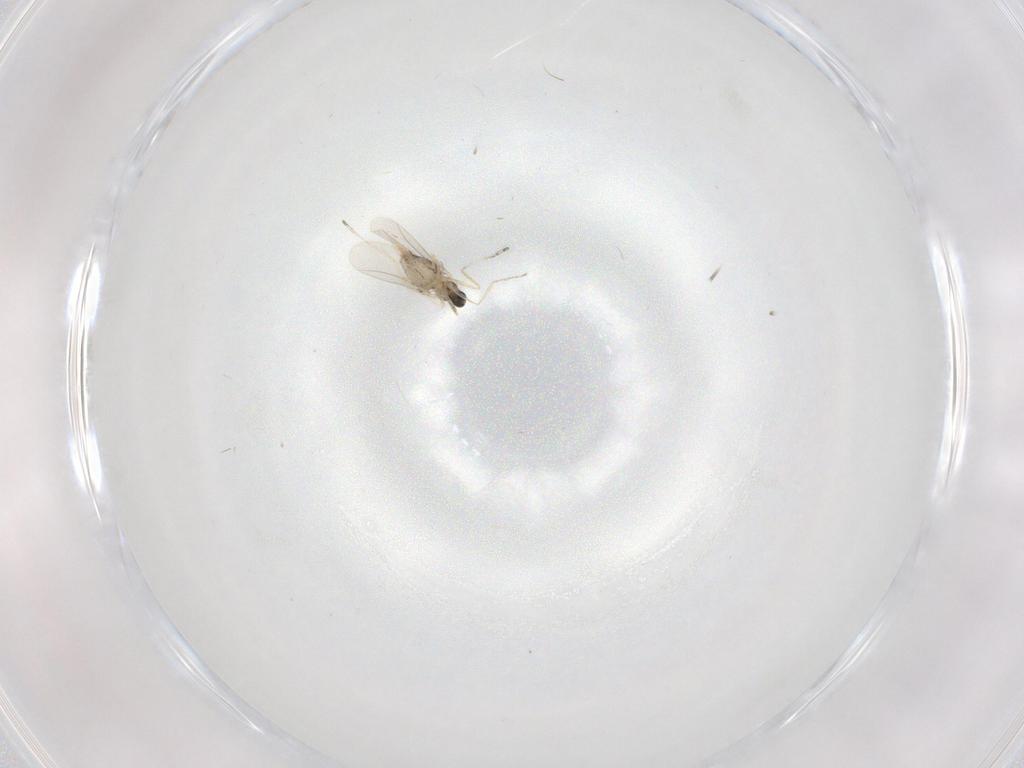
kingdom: Animalia
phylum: Arthropoda
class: Insecta
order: Diptera
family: Cecidomyiidae
